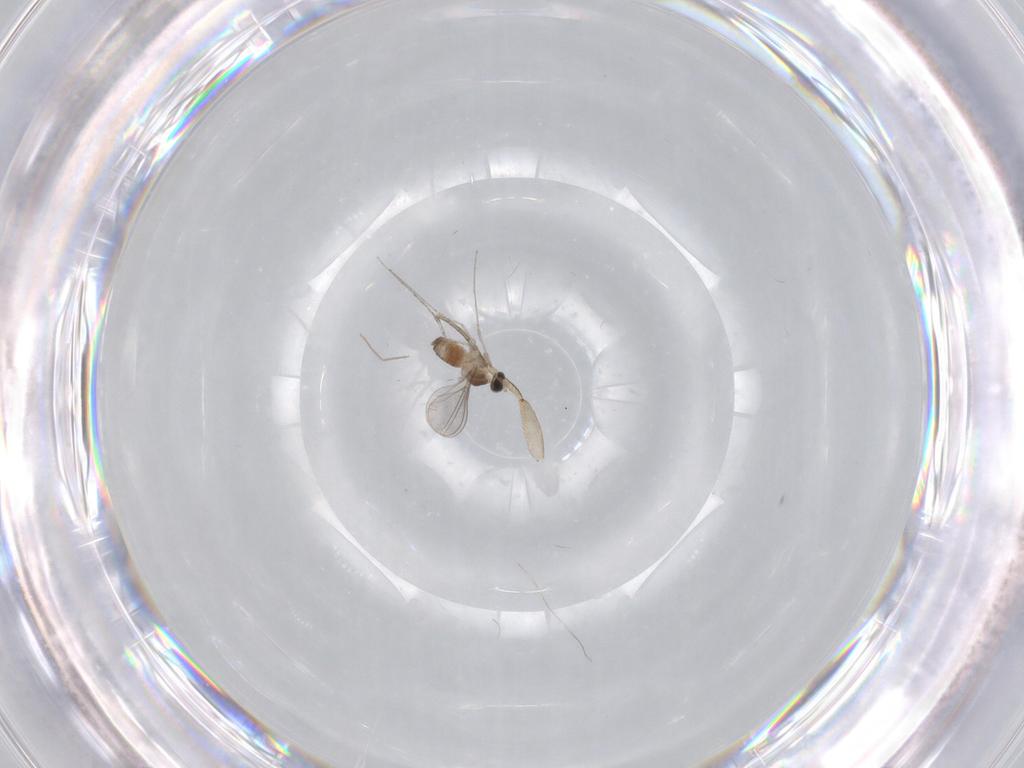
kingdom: Animalia
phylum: Arthropoda
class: Insecta
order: Diptera
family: Cecidomyiidae
